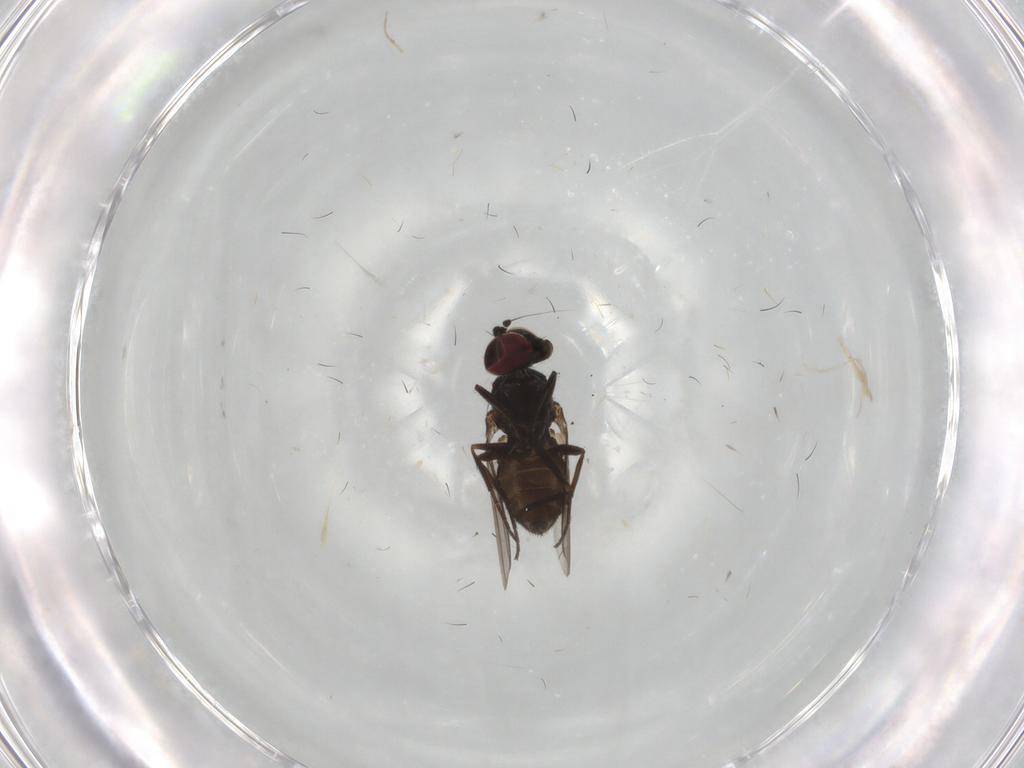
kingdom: Animalia
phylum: Arthropoda
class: Insecta
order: Diptera
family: Dolichopodidae
